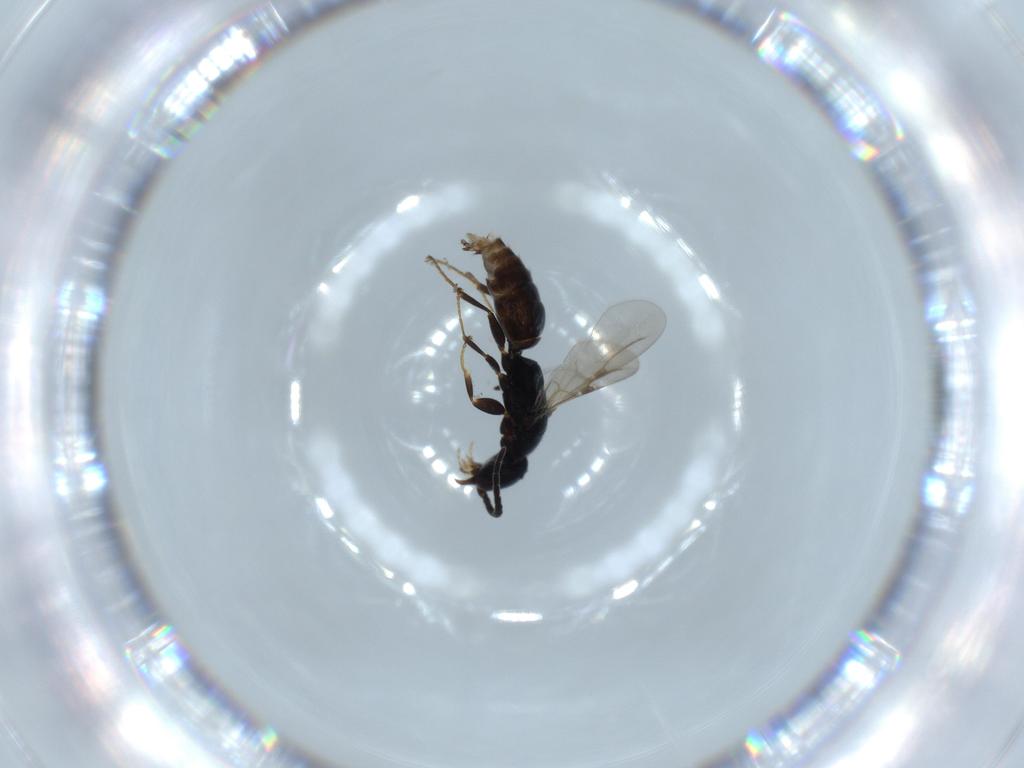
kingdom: Animalia
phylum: Arthropoda
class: Insecta
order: Hymenoptera
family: Bethylidae
